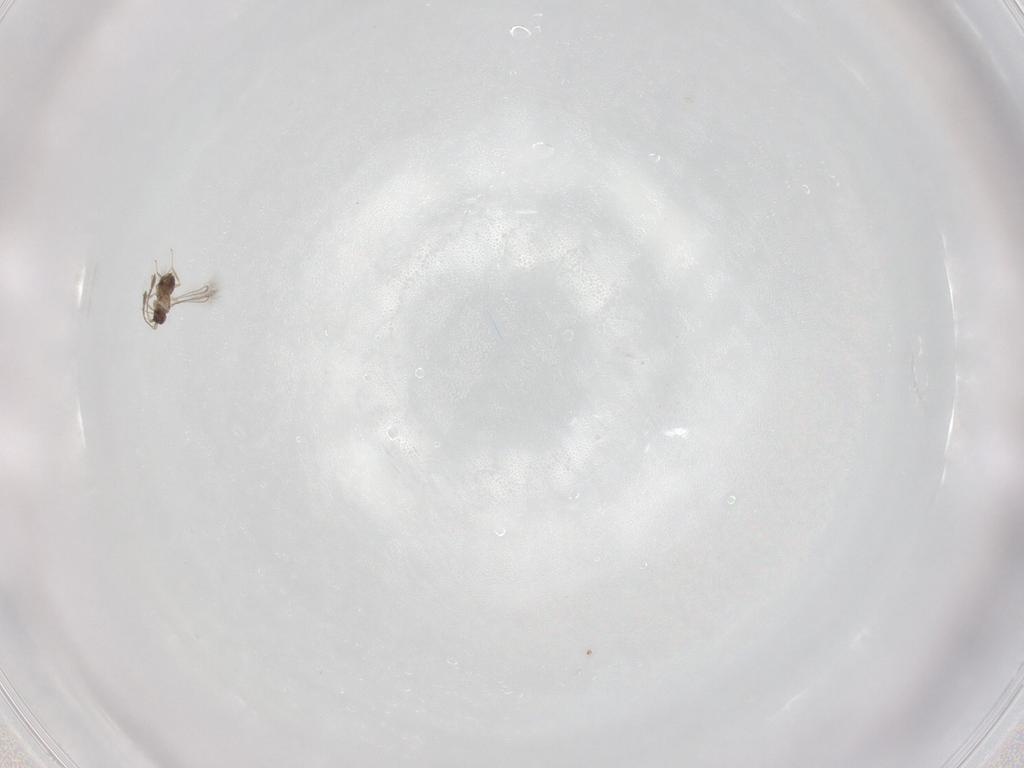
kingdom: Animalia
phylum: Arthropoda
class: Insecta
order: Hymenoptera
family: Mymaridae
